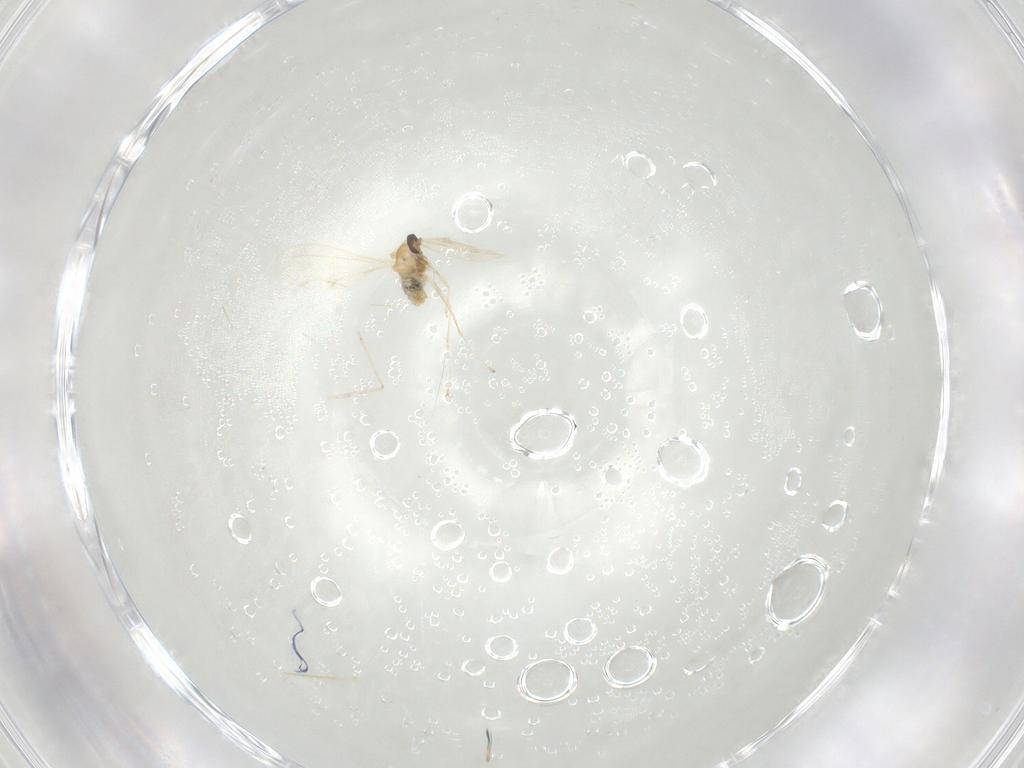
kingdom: Animalia
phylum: Arthropoda
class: Insecta
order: Diptera
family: Cecidomyiidae
